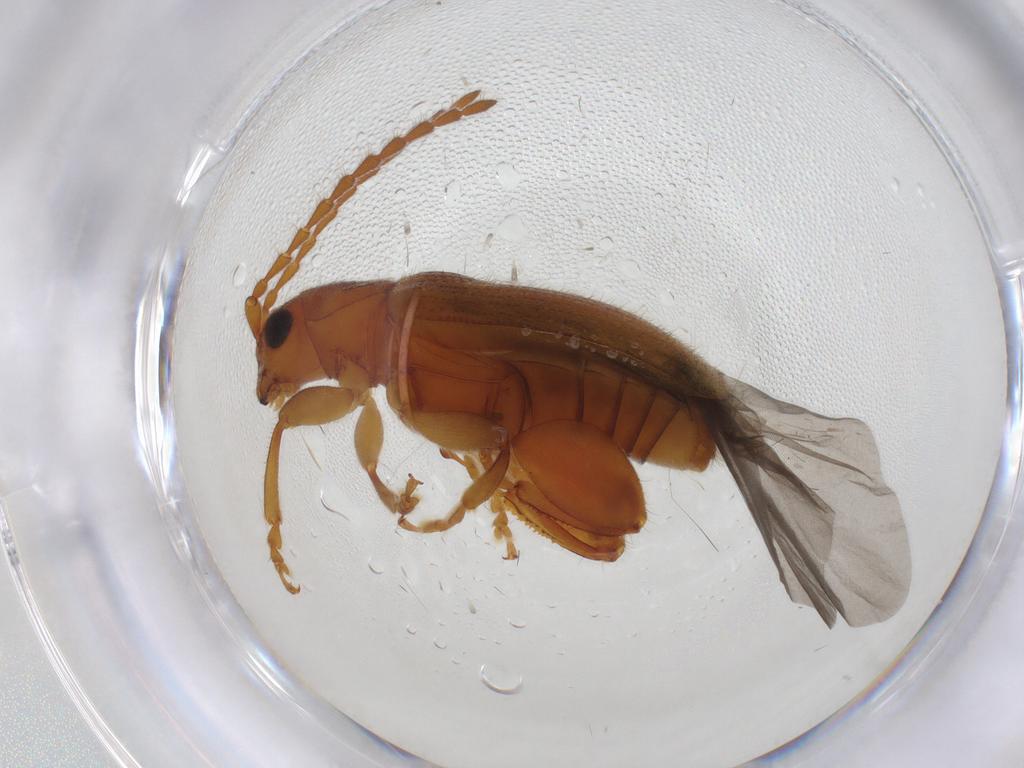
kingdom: Animalia
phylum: Arthropoda
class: Insecta
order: Coleoptera
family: Chrysomelidae
